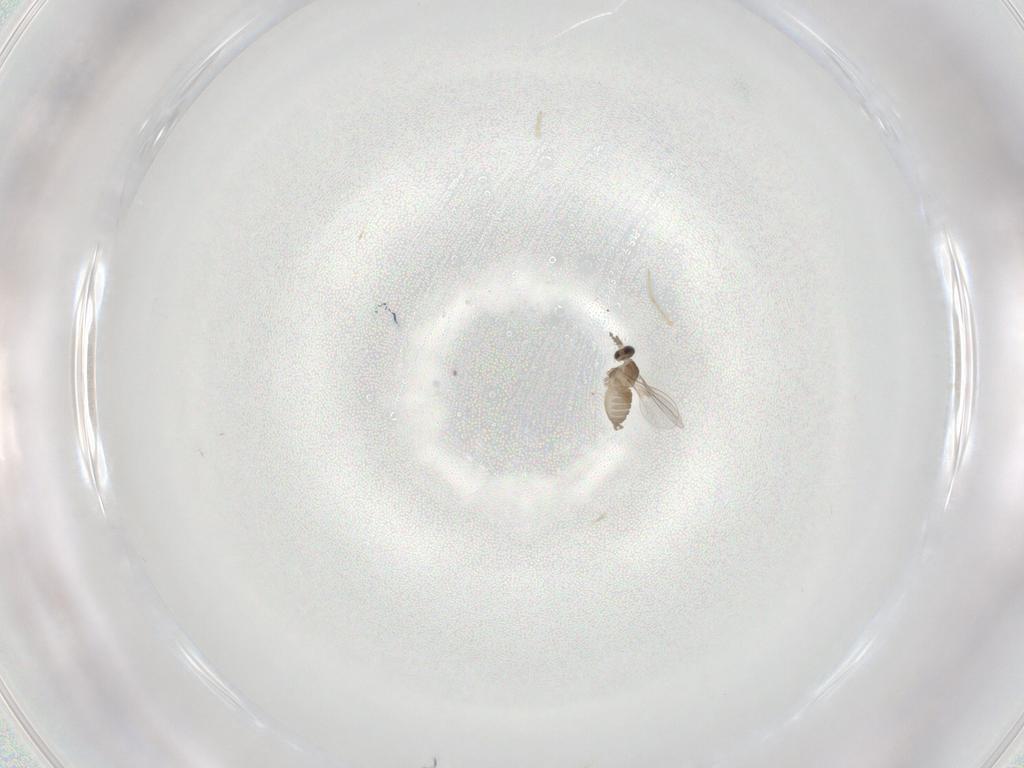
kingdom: Animalia
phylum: Arthropoda
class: Insecta
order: Diptera
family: Cecidomyiidae
